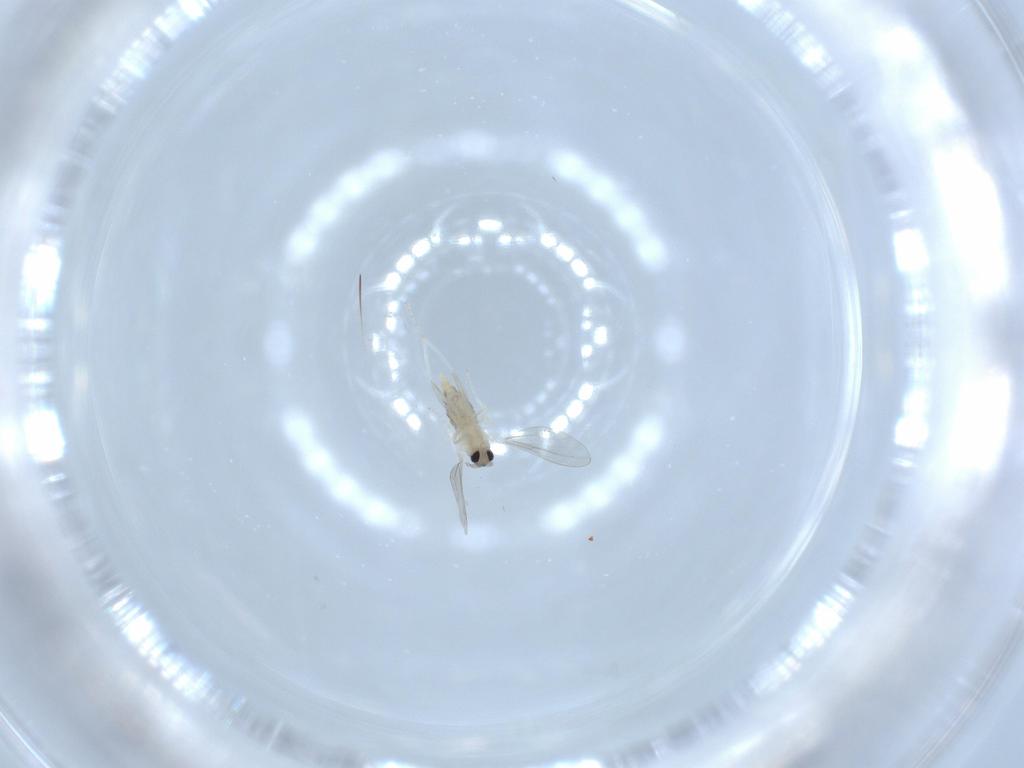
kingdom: Animalia
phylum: Arthropoda
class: Insecta
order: Diptera
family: Cecidomyiidae
